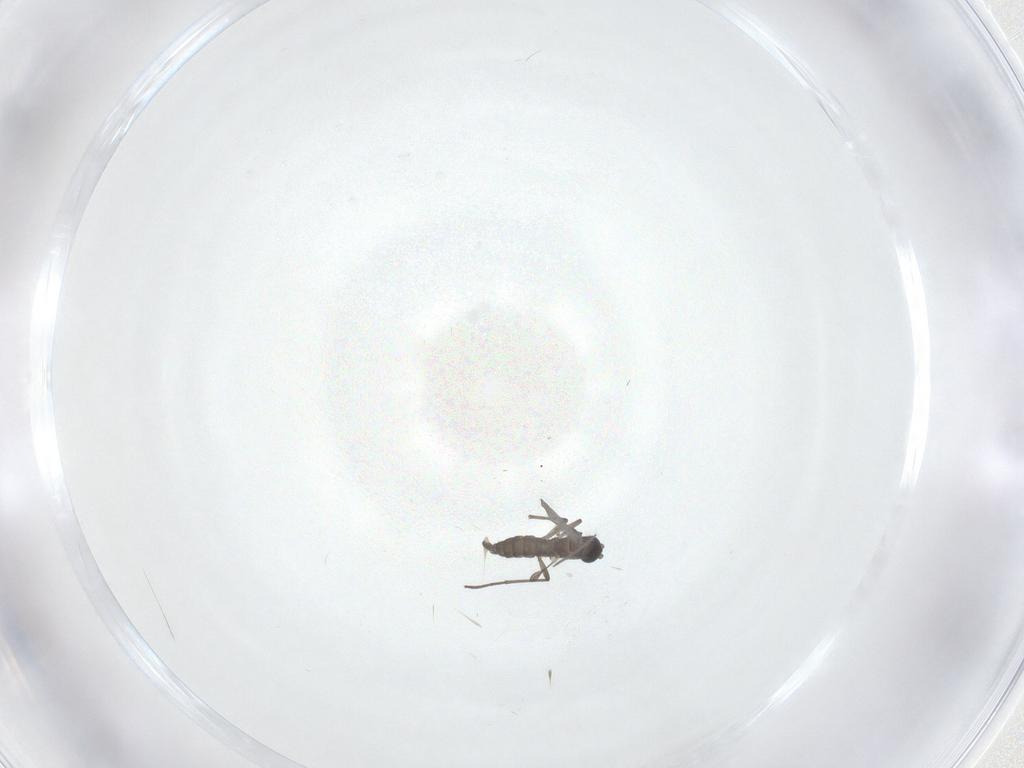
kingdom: Animalia
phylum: Arthropoda
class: Insecta
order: Diptera
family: Sciaridae
